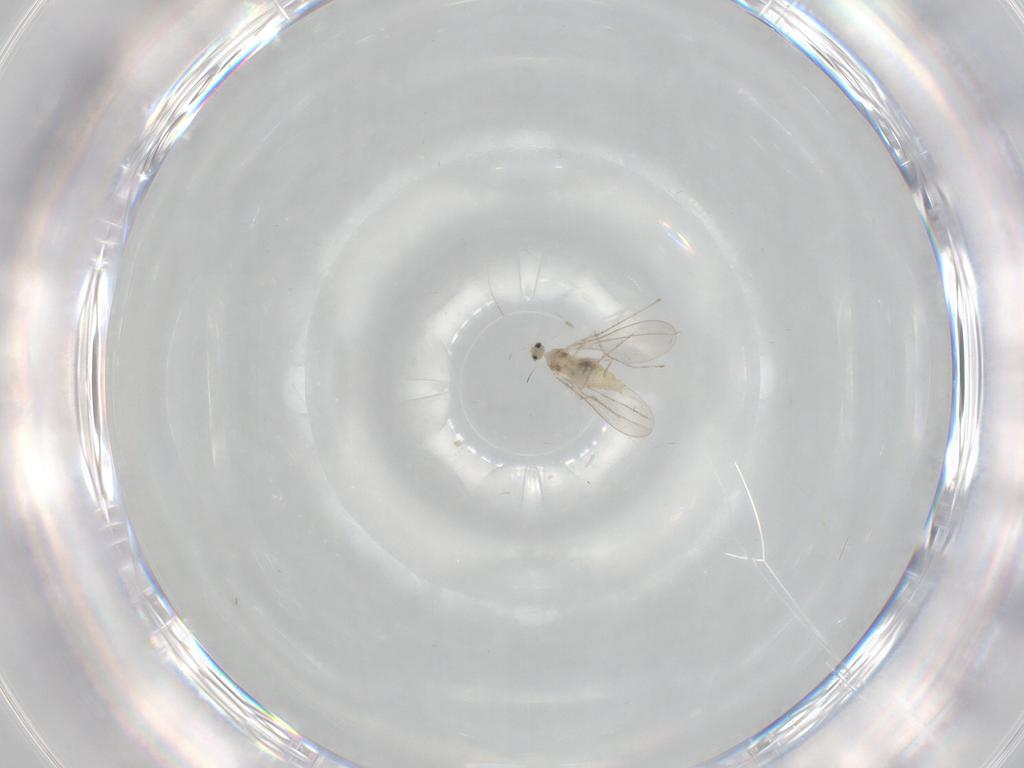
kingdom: Animalia
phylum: Arthropoda
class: Insecta
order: Diptera
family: Cecidomyiidae
